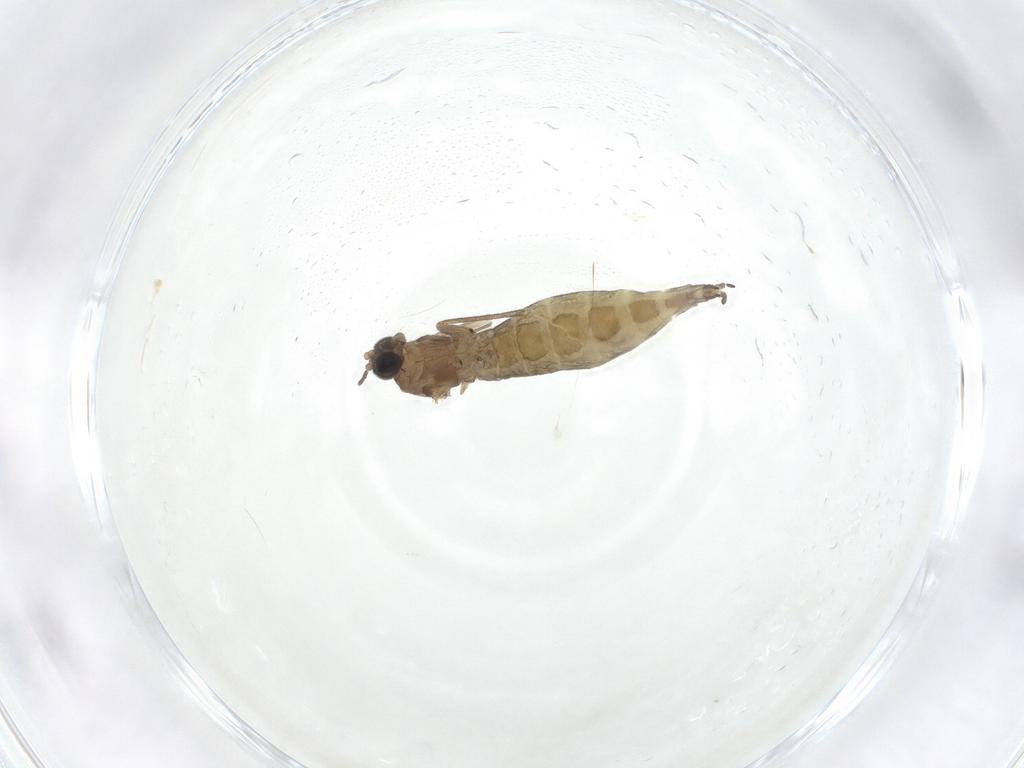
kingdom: Animalia
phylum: Arthropoda
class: Insecta
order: Diptera
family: Sciaridae
